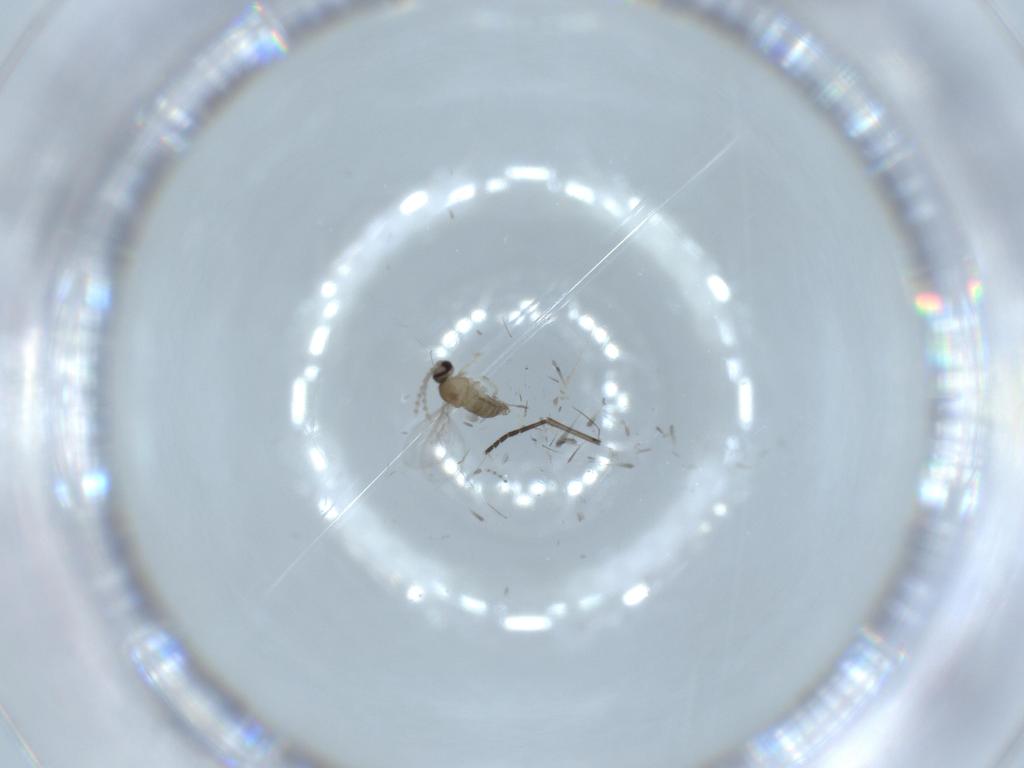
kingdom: Animalia
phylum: Arthropoda
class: Insecta
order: Diptera
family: Cecidomyiidae
